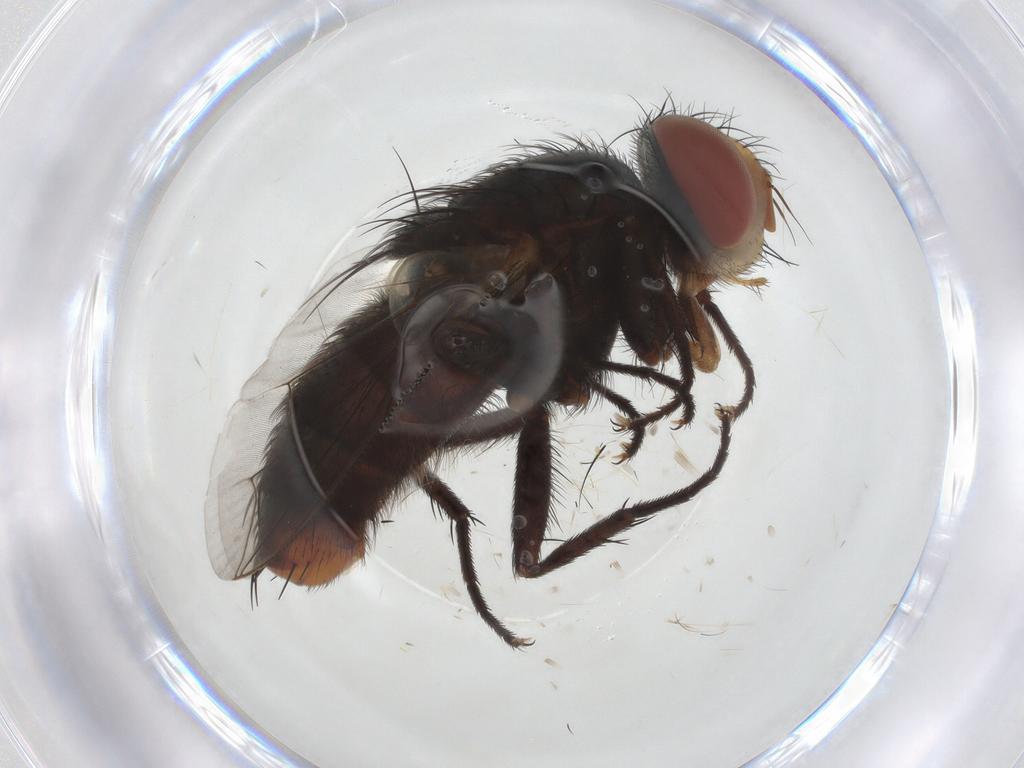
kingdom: Animalia
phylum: Arthropoda
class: Insecta
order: Diptera
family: Sarcophagidae
